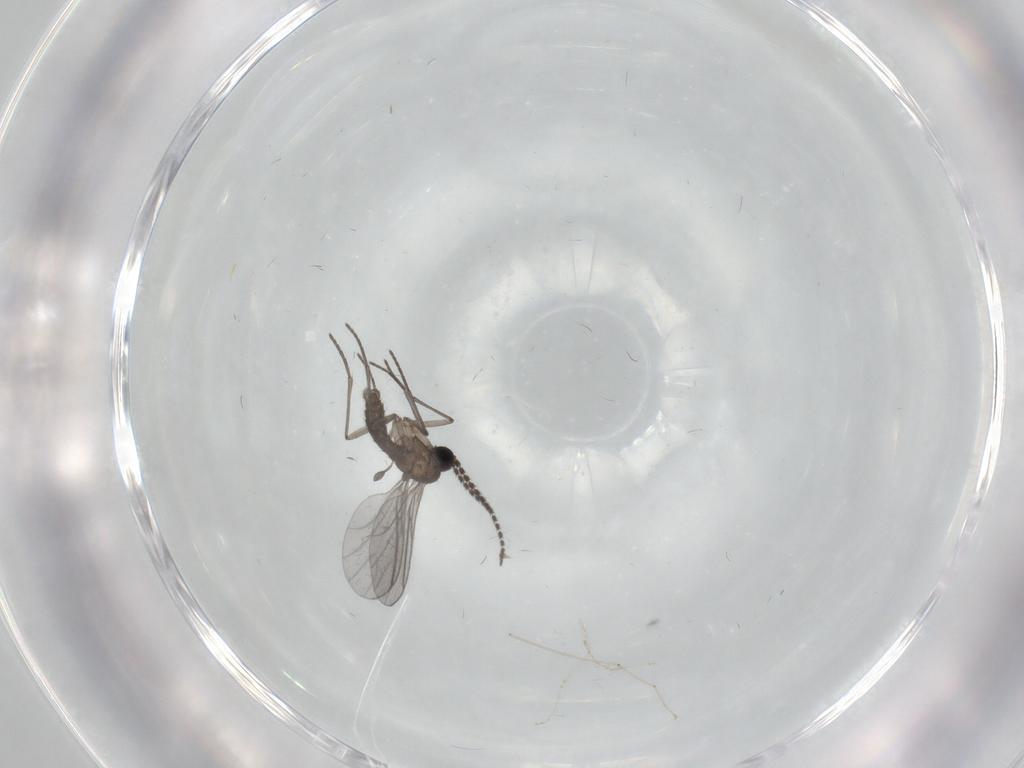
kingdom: Animalia
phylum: Arthropoda
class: Insecta
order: Diptera
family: Sciaridae
